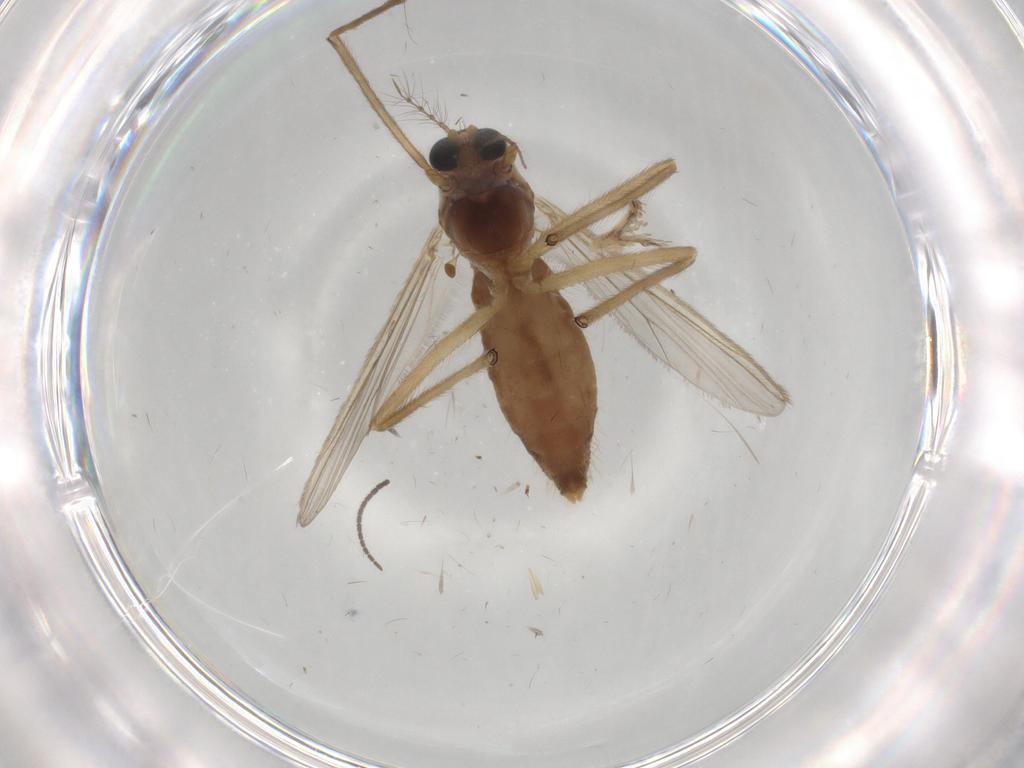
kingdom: Animalia
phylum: Arthropoda
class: Insecta
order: Diptera
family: Chironomidae
